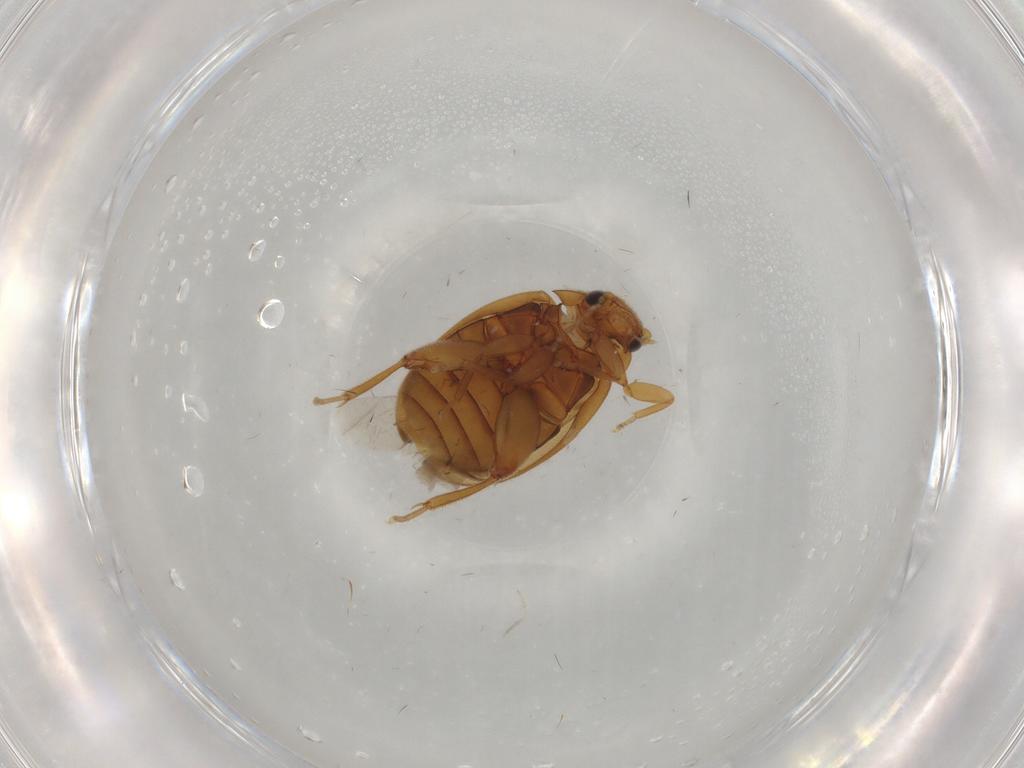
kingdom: Animalia
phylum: Arthropoda
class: Insecta
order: Coleoptera
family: Scirtidae
